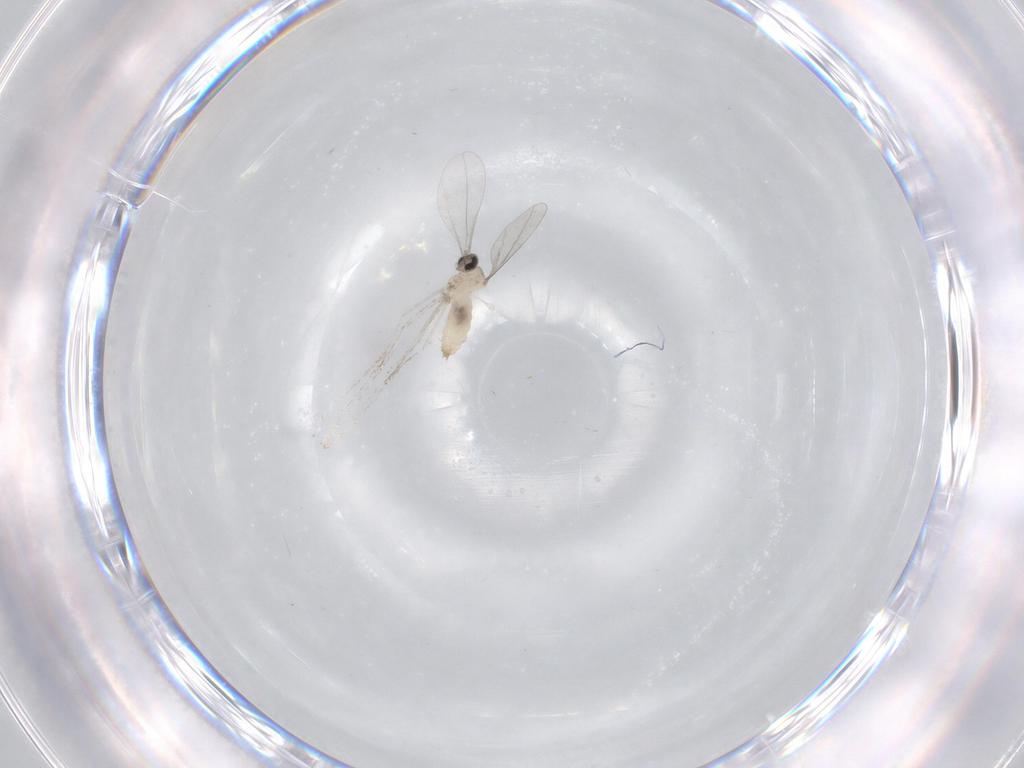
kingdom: Animalia
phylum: Arthropoda
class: Insecta
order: Diptera
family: Cecidomyiidae
